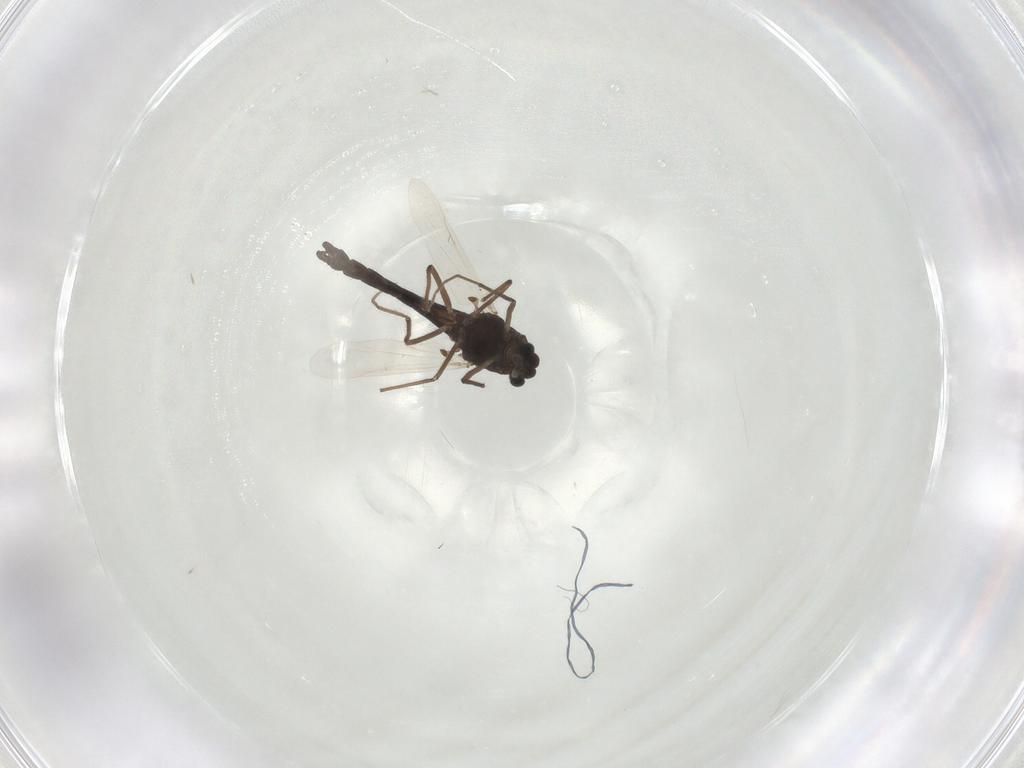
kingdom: Animalia
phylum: Arthropoda
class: Insecta
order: Diptera
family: Chironomidae
